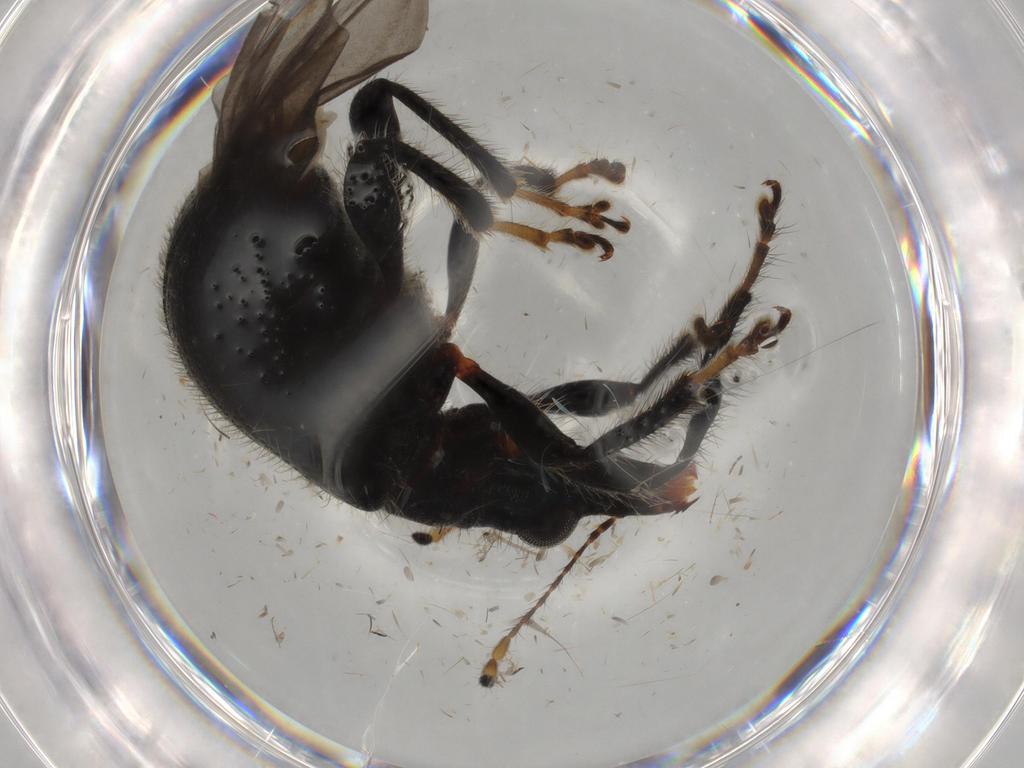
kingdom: Animalia
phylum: Arthropoda
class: Insecta
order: Coleoptera
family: Attelabidae
